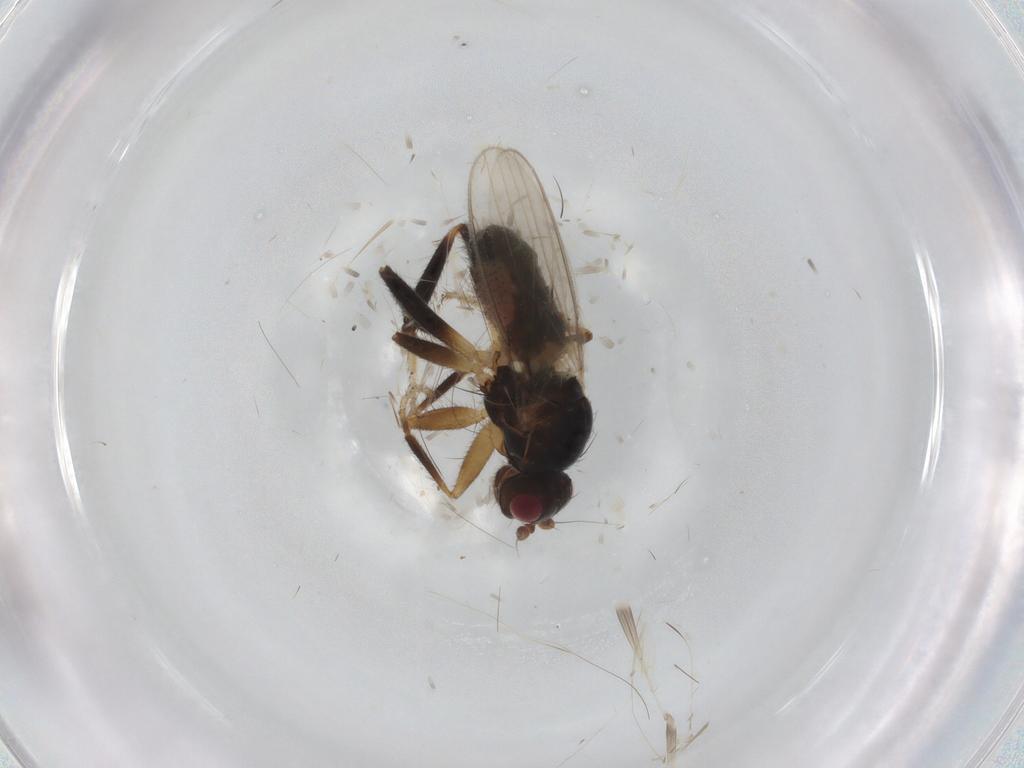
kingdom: Animalia
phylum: Arthropoda
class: Insecta
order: Diptera
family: Sphaeroceridae
